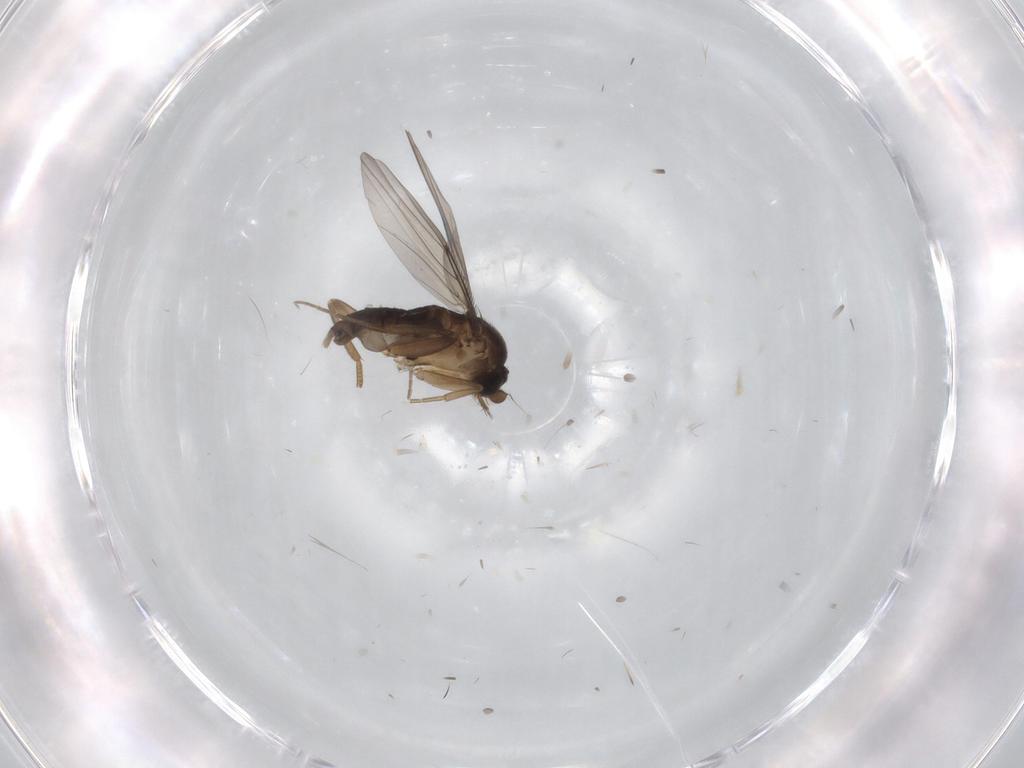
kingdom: Animalia
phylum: Arthropoda
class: Insecta
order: Diptera
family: Phoridae
